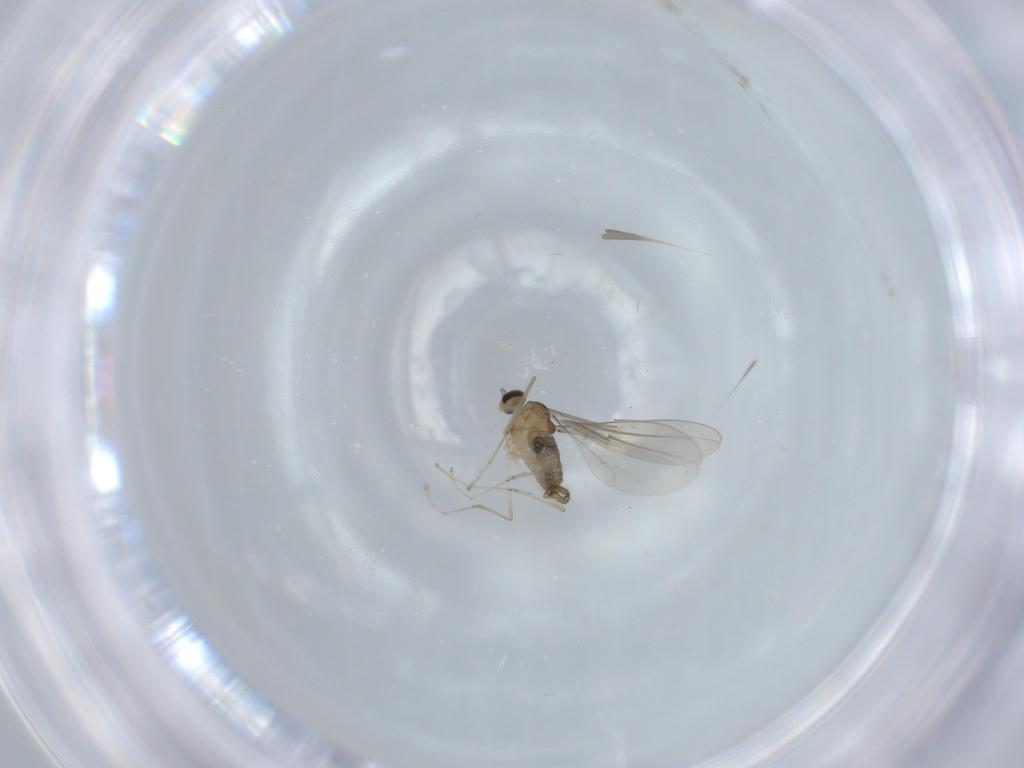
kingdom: Animalia
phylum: Arthropoda
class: Insecta
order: Diptera
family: Cecidomyiidae
